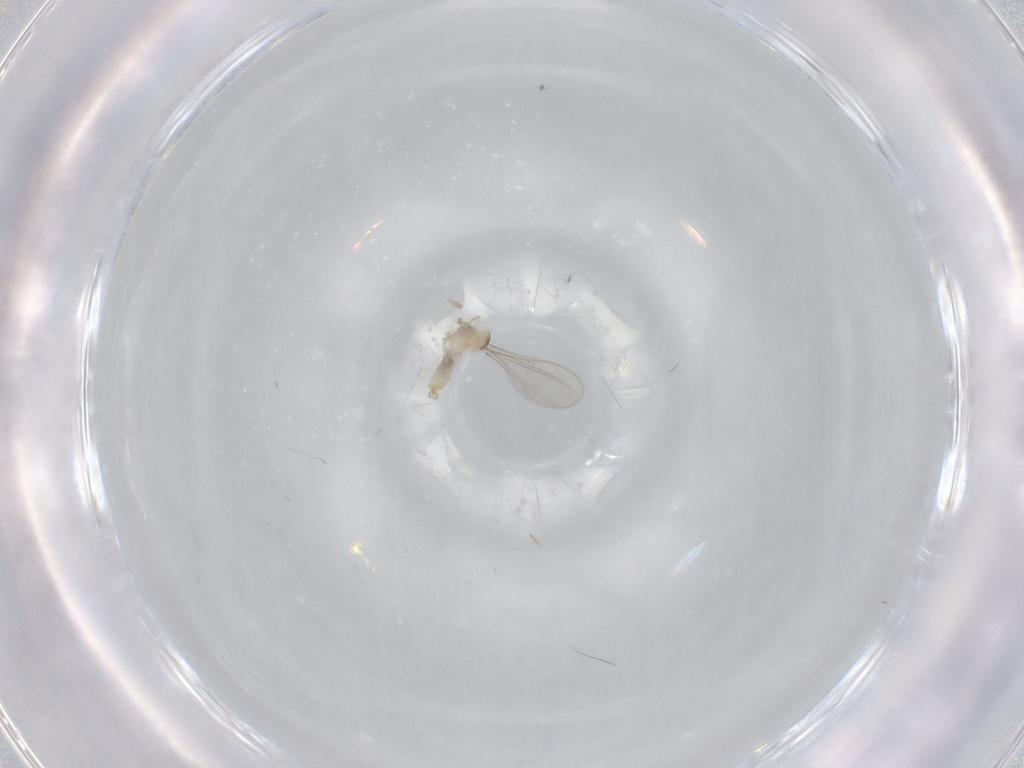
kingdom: Animalia
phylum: Arthropoda
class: Insecta
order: Diptera
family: Cecidomyiidae
